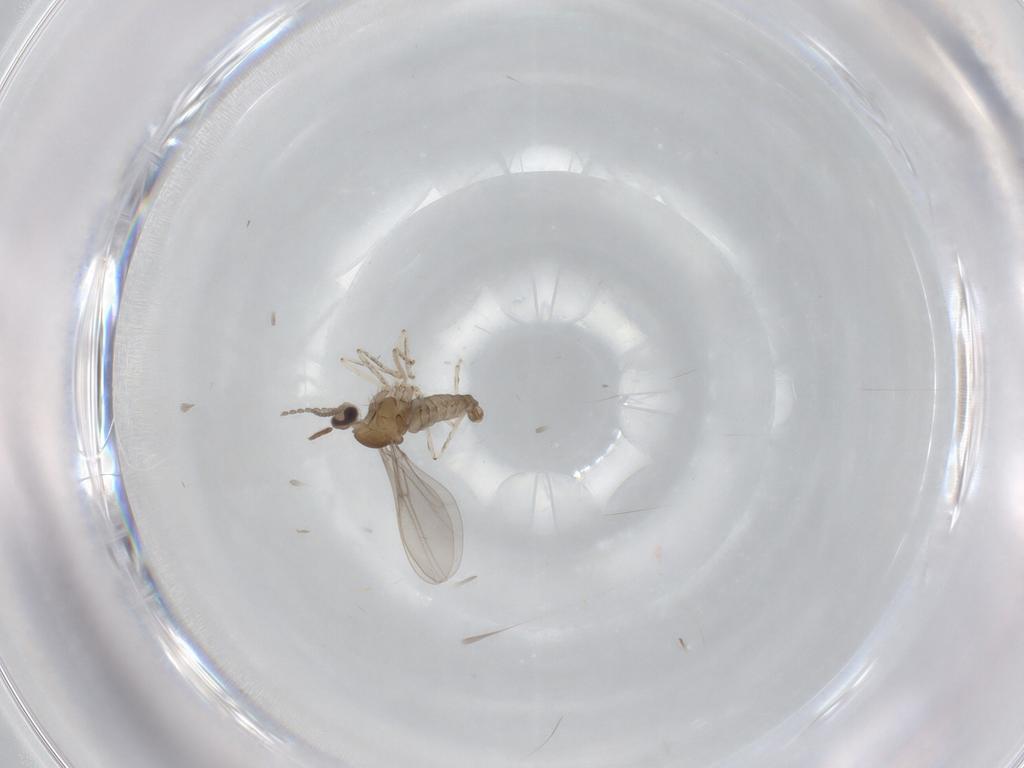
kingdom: Animalia
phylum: Arthropoda
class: Insecta
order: Diptera
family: Cecidomyiidae
